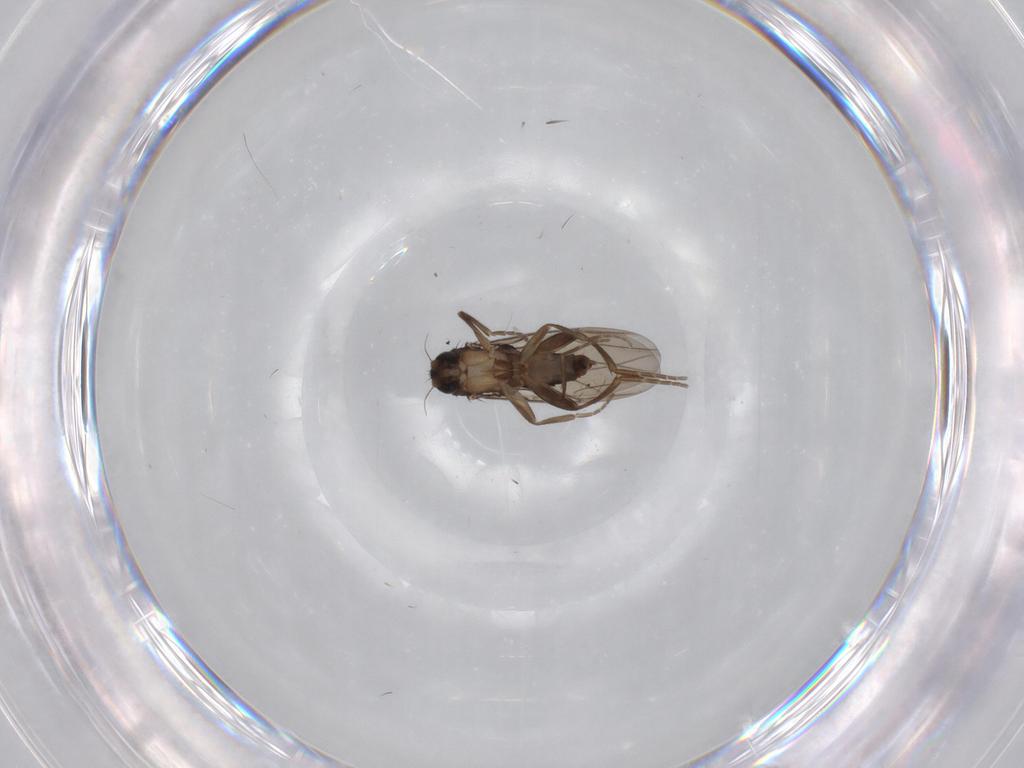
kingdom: Animalia
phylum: Arthropoda
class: Insecta
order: Diptera
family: Phoridae
